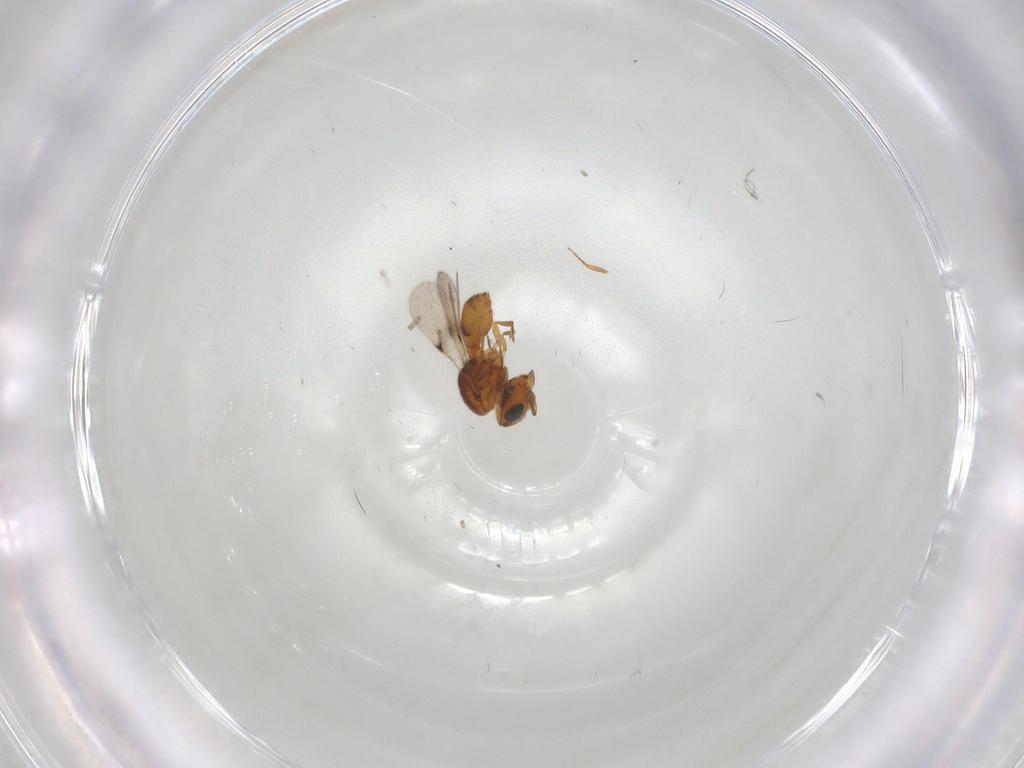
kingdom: Animalia
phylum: Arthropoda
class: Insecta
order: Hymenoptera
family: Scelionidae
